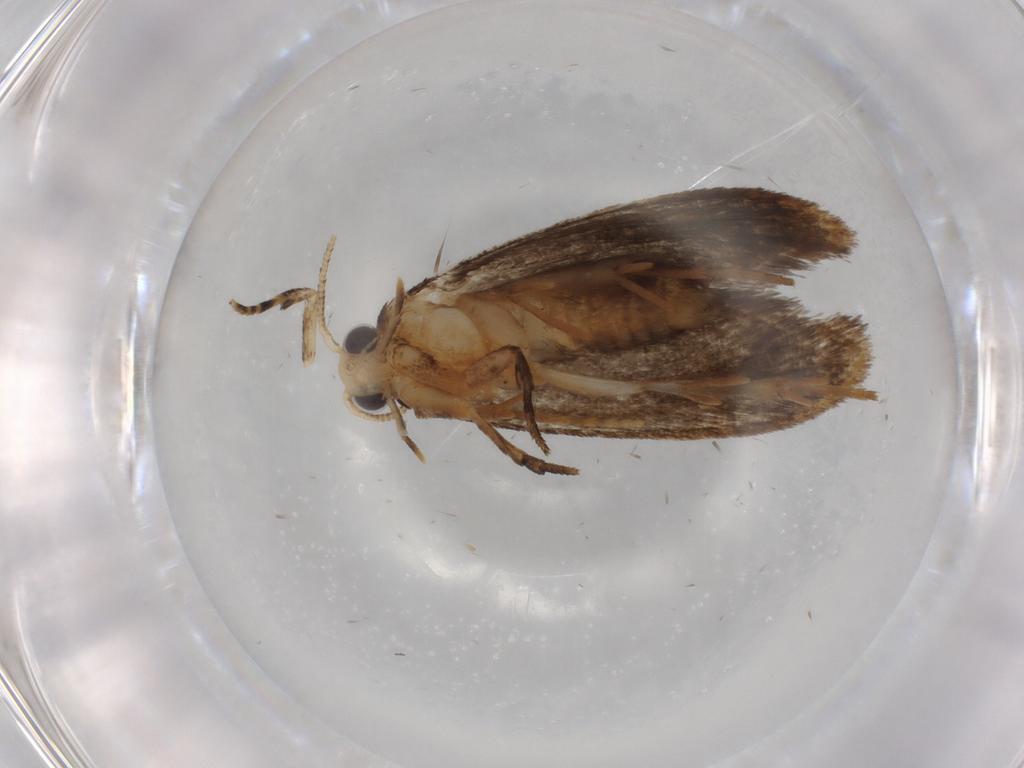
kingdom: Animalia
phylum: Arthropoda
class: Insecta
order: Lepidoptera
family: Tineidae
